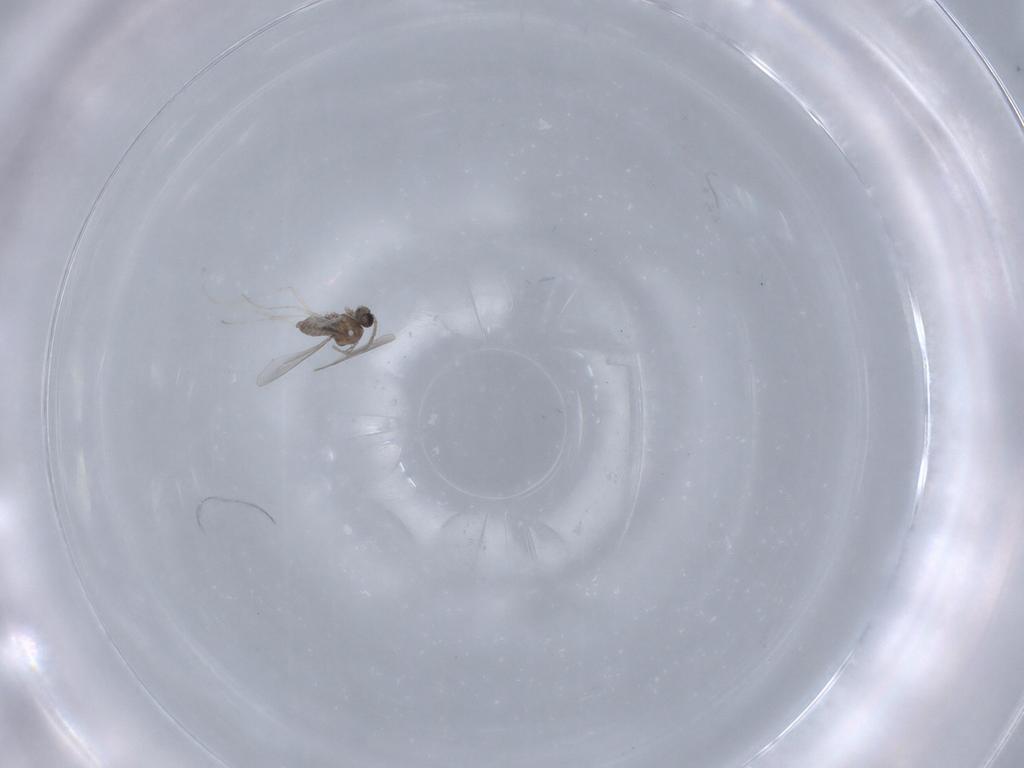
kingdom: Animalia
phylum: Arthropoda
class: Insecta
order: Diptera
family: Cecidomyiidae
